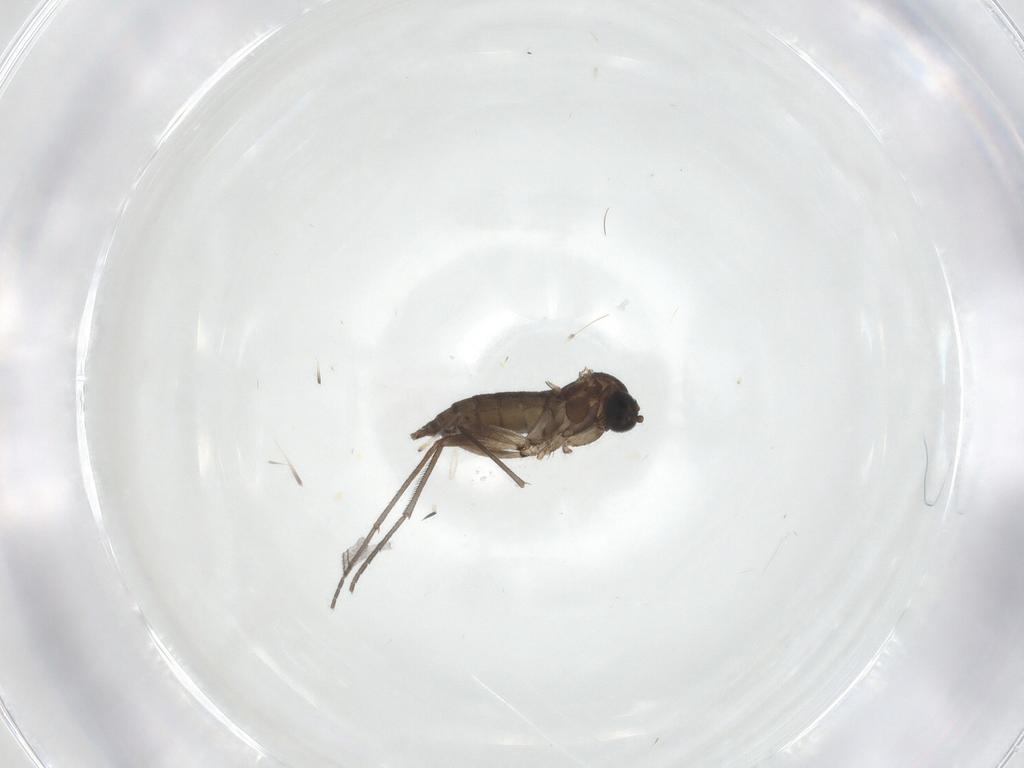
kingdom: Animalia
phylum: Arthropoda
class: Insecta
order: Diptera
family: Sciaridae
